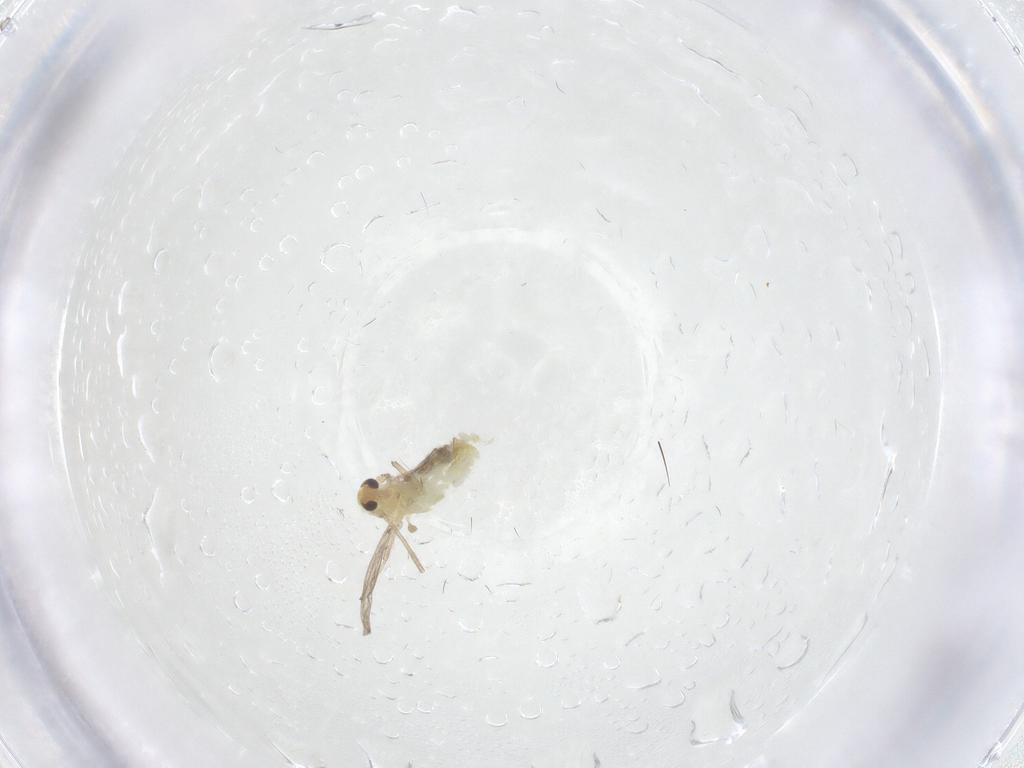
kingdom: Animalia
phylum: Arthropoda
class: Insecta
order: Diptera
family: Chironomidae
